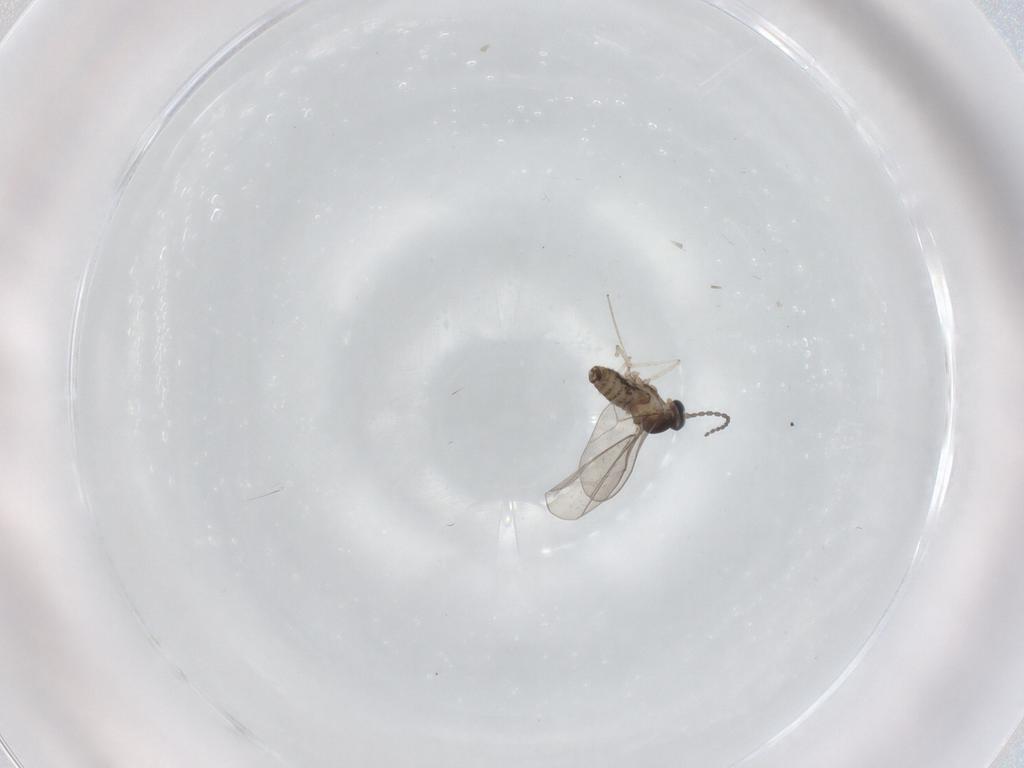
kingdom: Animalia
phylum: Arthropoda
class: Insecta
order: Diptera
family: Cecidomyiidae
